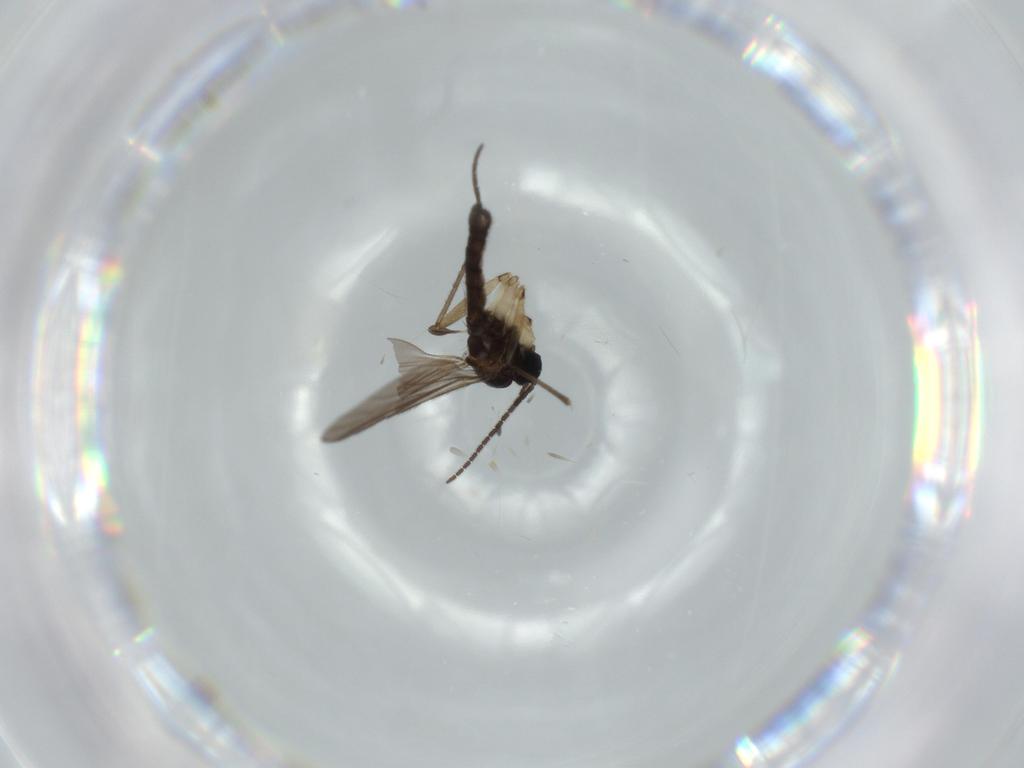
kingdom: Animalia
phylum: Arthropoda
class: Insecta
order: Diptera
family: Sciaridae
